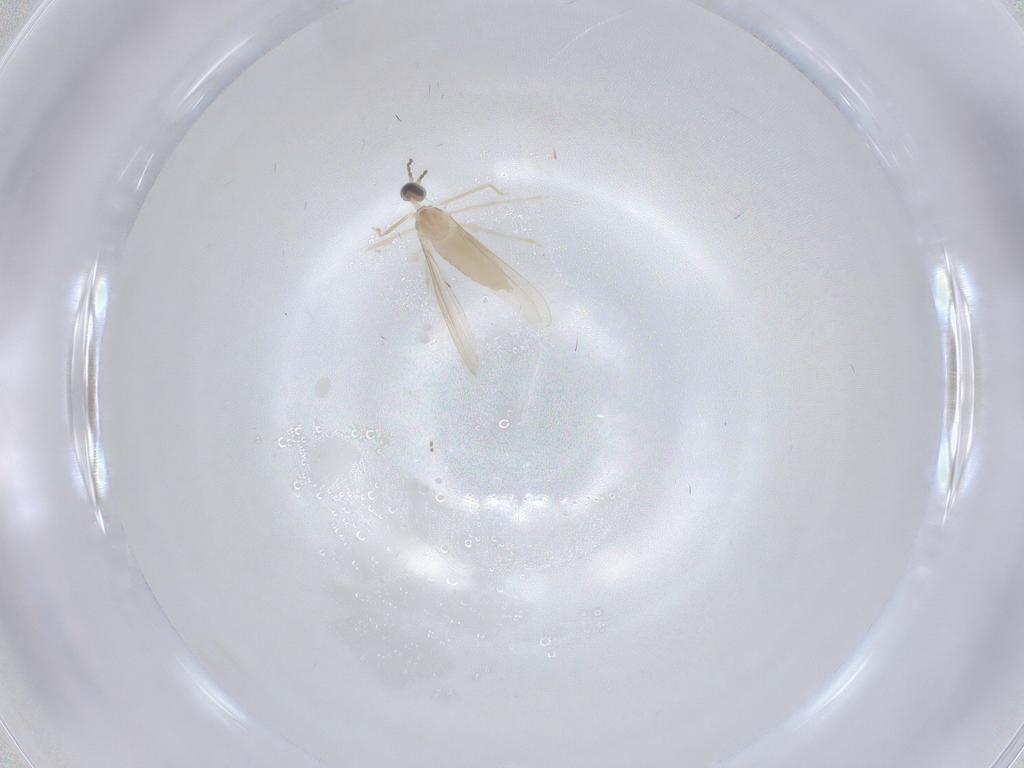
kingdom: Animalia
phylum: Arthropoda
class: Insecta
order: Diptera
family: Cecidomyiidae
